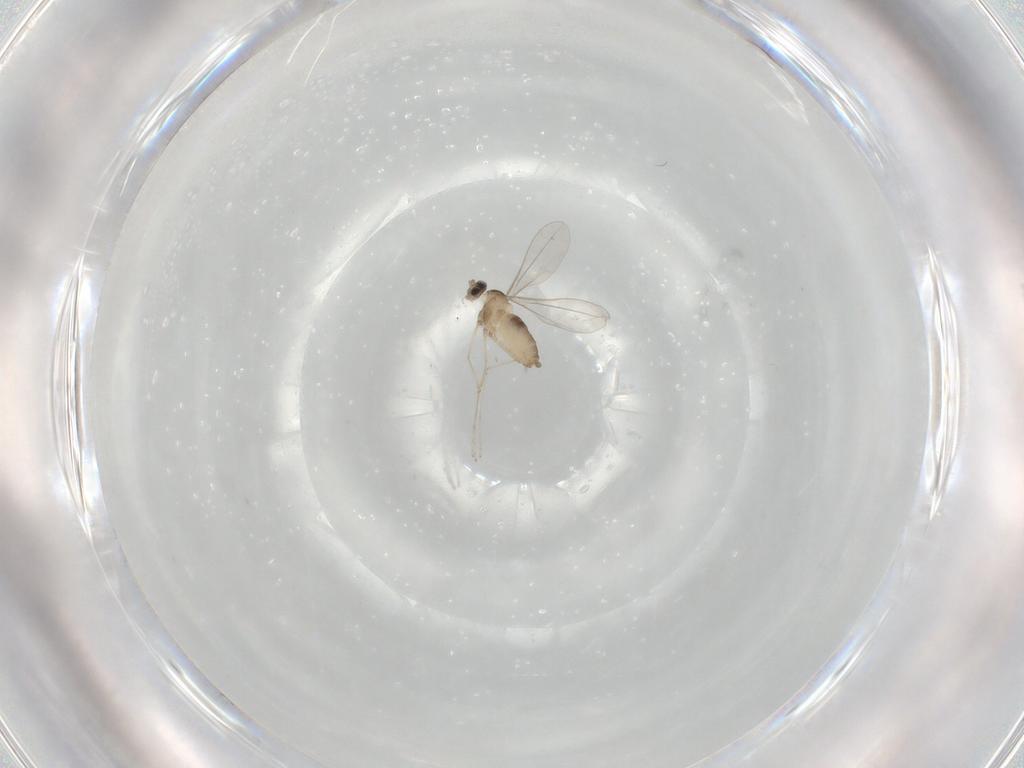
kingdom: Animalia
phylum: Arthropoda
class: Insecta
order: Diptera
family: Cecidomyiidae
